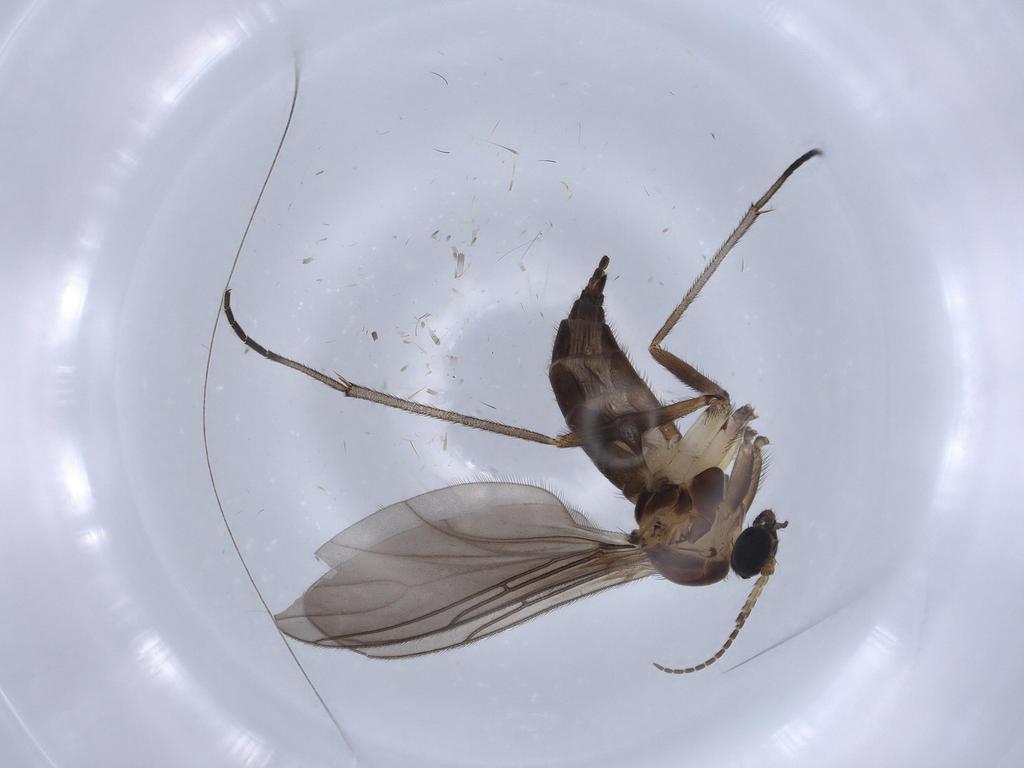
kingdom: Animalia
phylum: Arthropoda
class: Insecta
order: Diptera
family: Sciaridae
